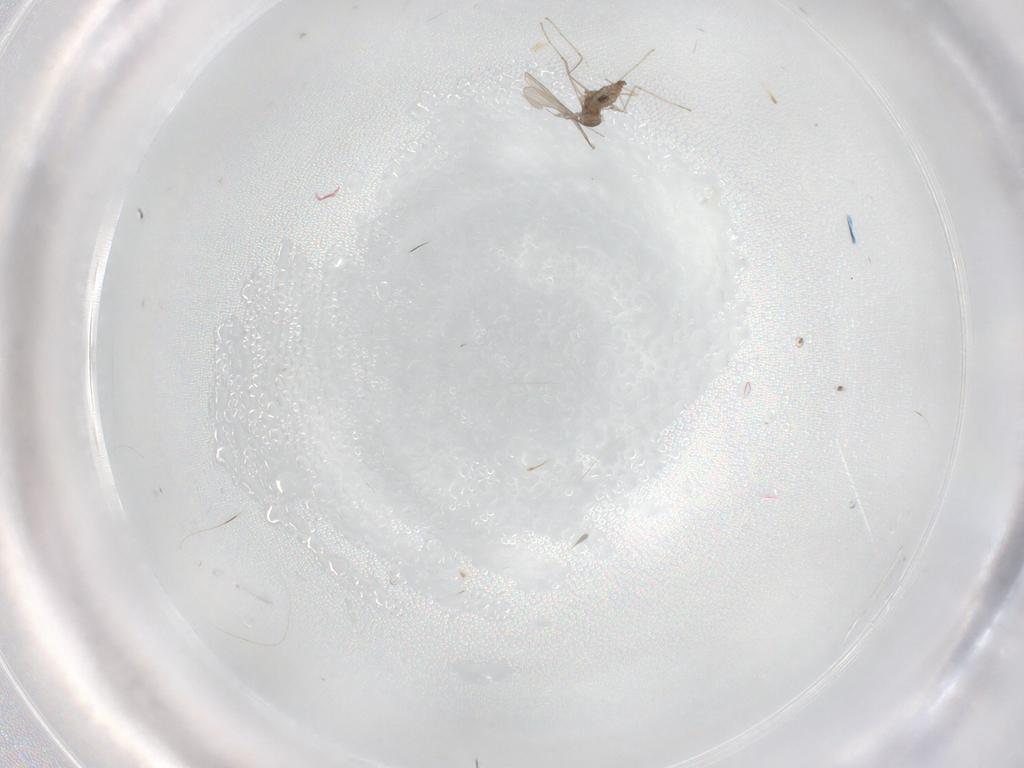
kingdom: Animalia
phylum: Arthropoda
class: Insecta
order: Diptera
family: Cecidomyiidae
